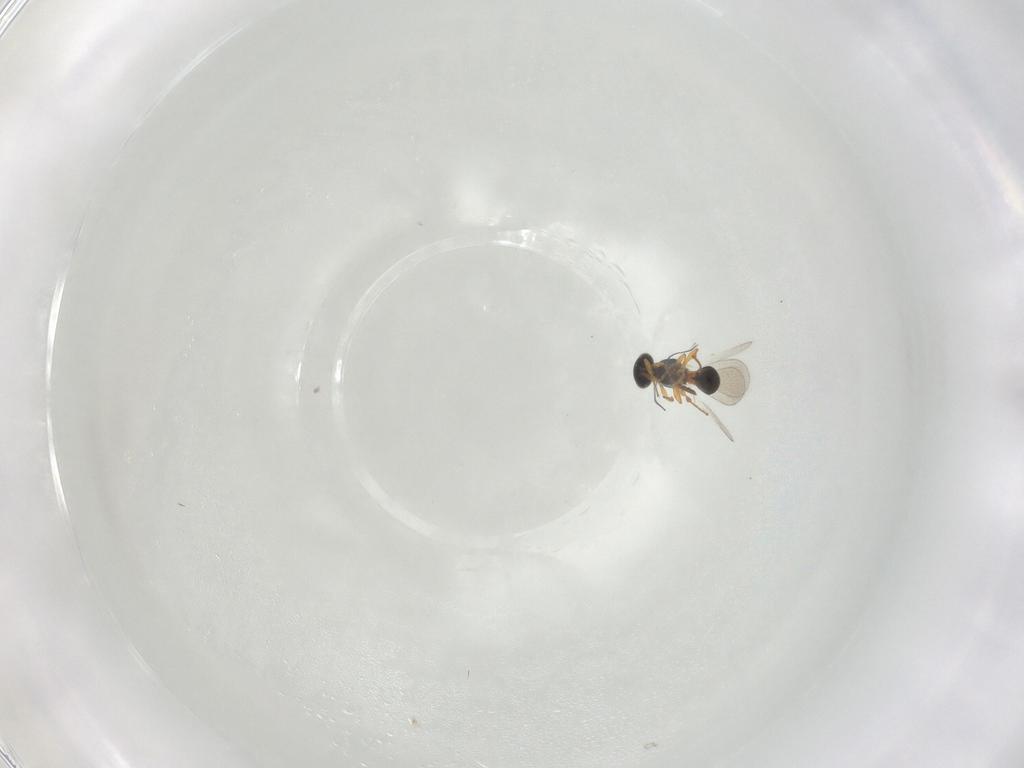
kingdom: Animalia
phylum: Arthropoda
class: Insecta
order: Hymenoptera
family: Platygastridae
